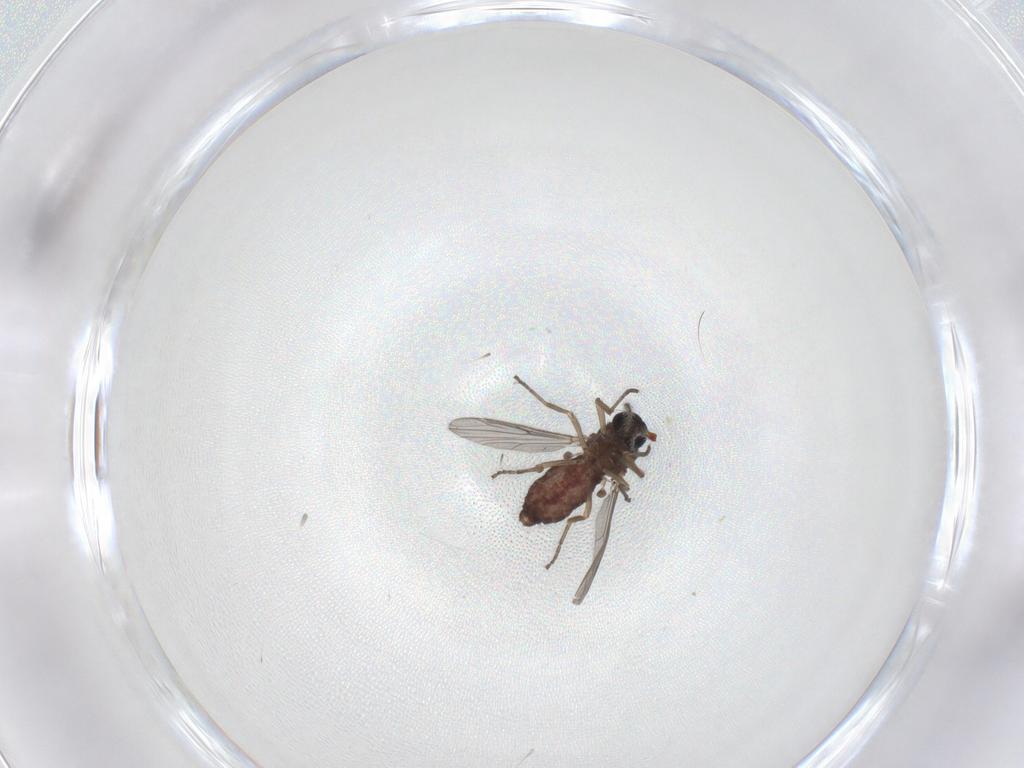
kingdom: Animalia
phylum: Arthropoda
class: Insecta
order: Diptera
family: Ceratopogonidae
